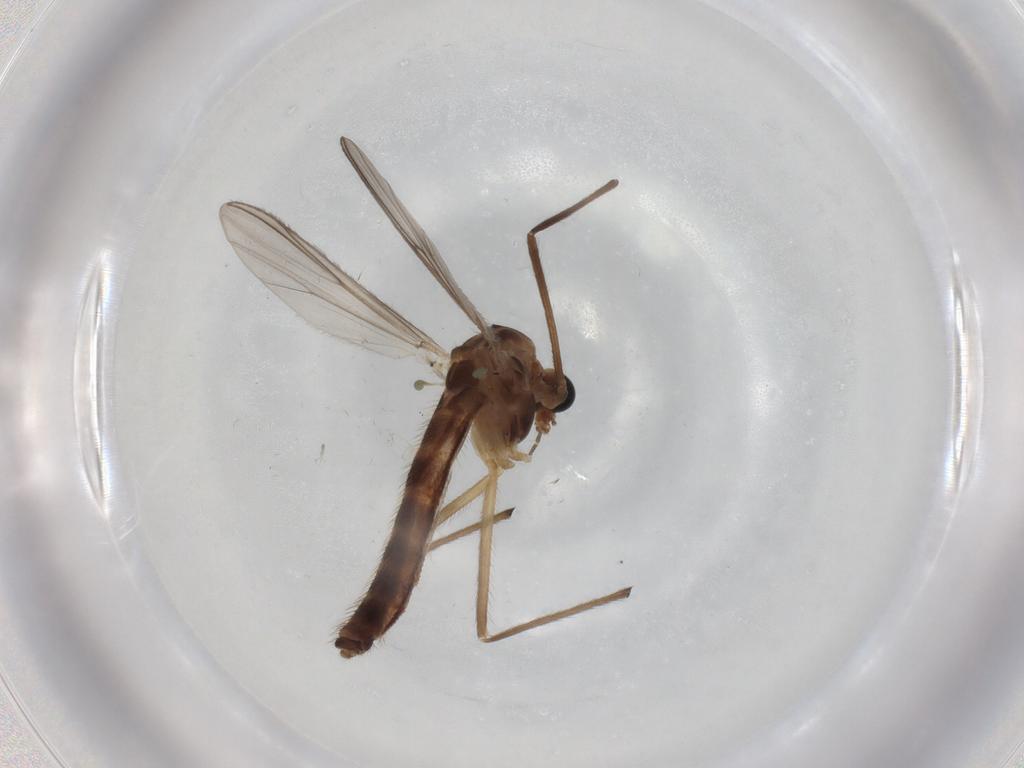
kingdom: Animalia
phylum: Arthropoda
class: Insecta
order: Diptera
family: Chironomidae
